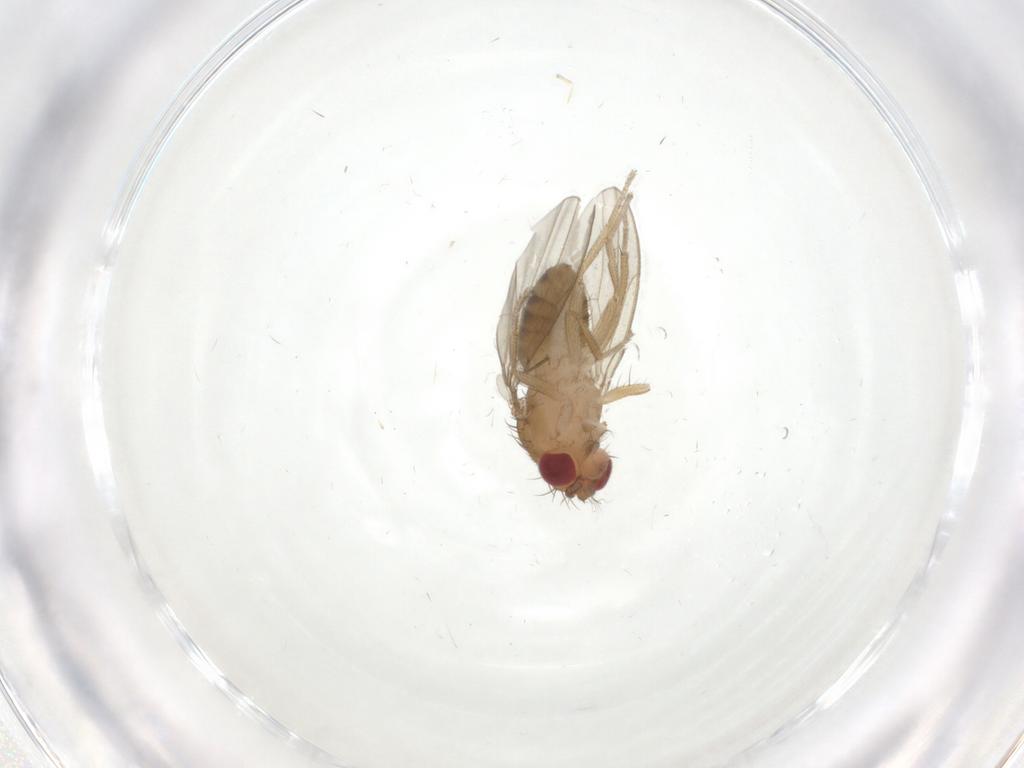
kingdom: Animalia
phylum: Arthropoda
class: Insecta
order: Diptera
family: Drosophilidae
